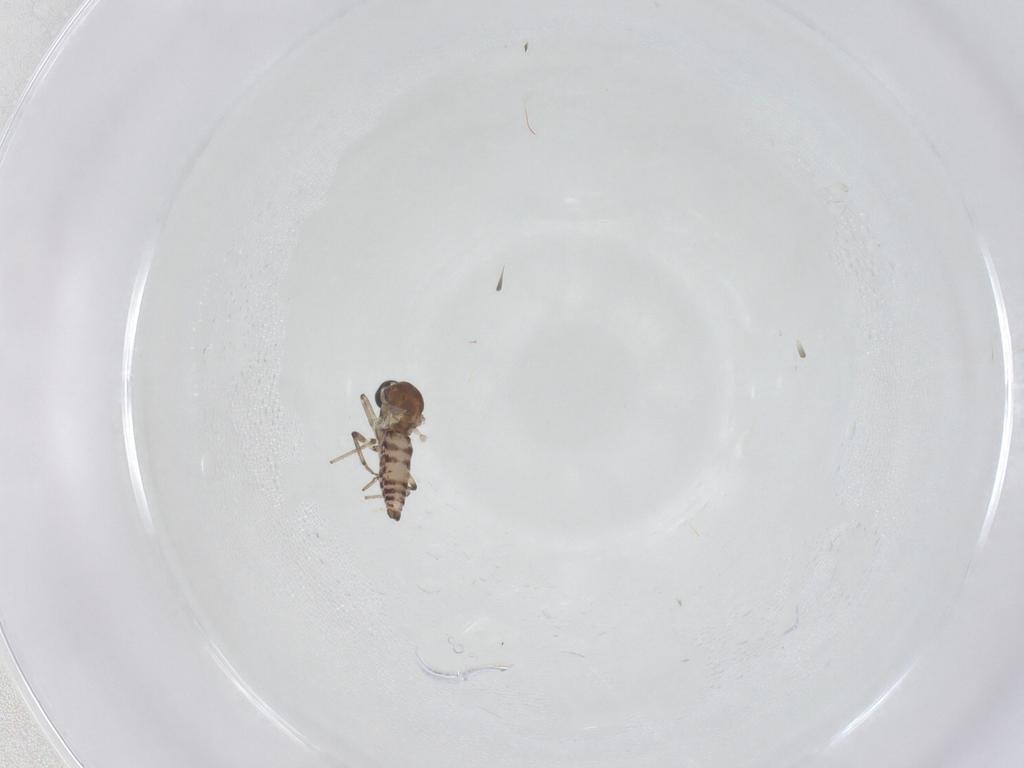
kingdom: Animalia
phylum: Arthropoda
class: Insecta
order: Diptera
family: Ceratopogonidae
